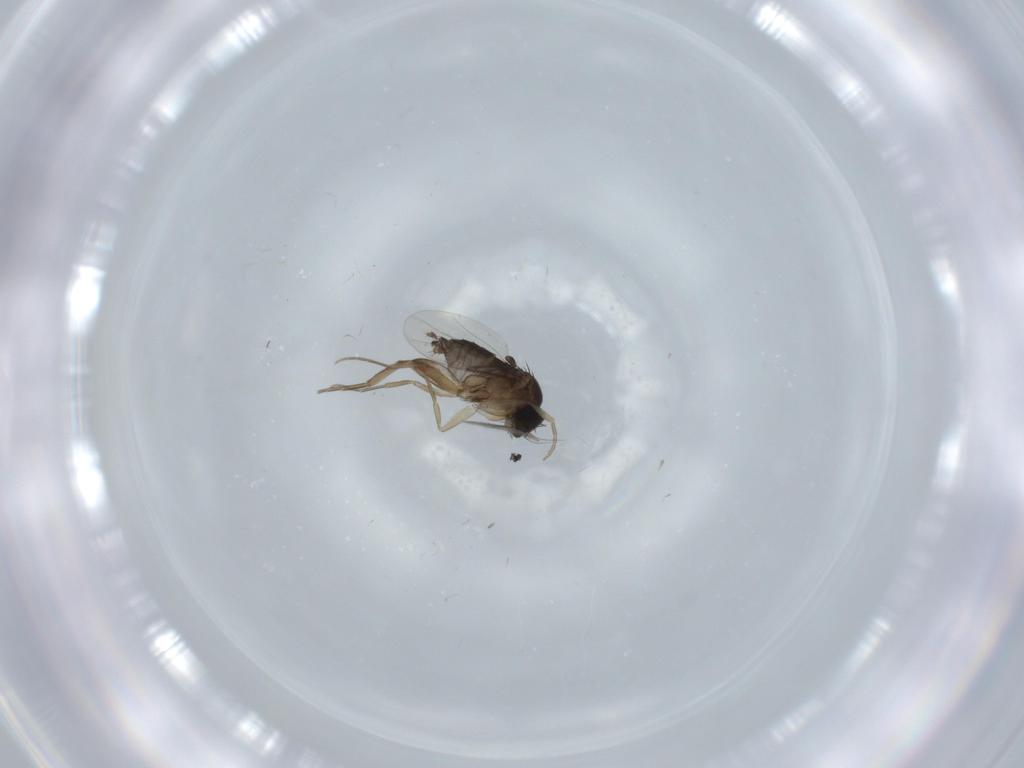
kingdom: Animalia
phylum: Arthropoda
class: Insecta
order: Diptera
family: Phoridae
